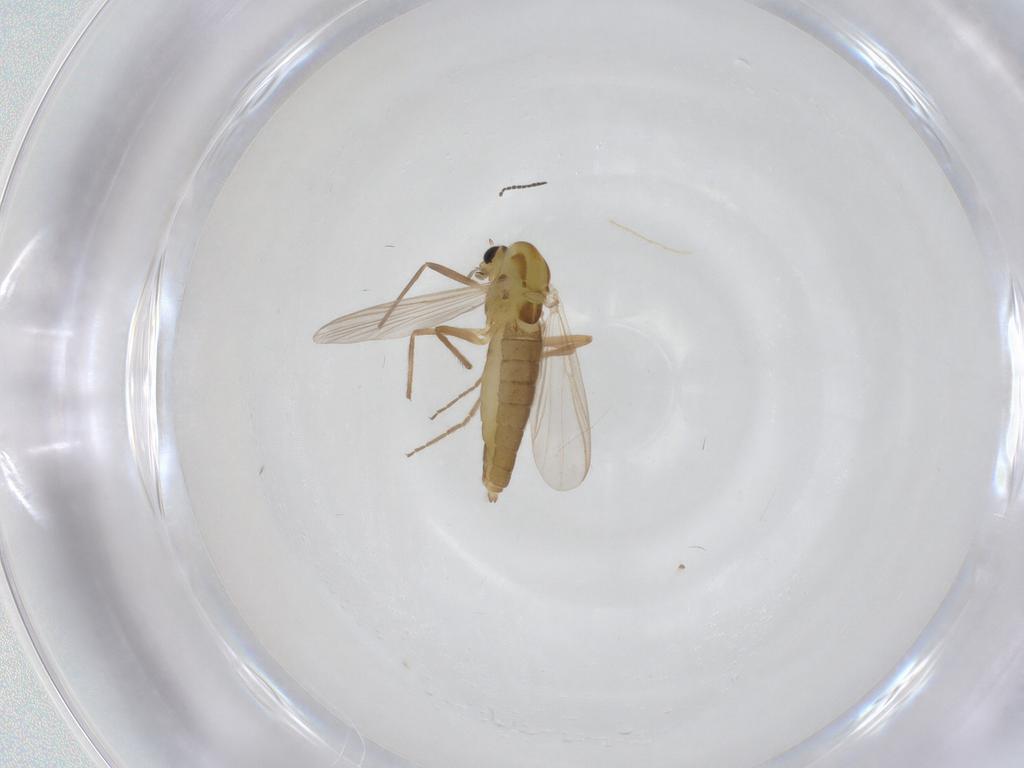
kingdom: Animalia
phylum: Arthropoda
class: Insecta
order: Diptera
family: Chironomidae
